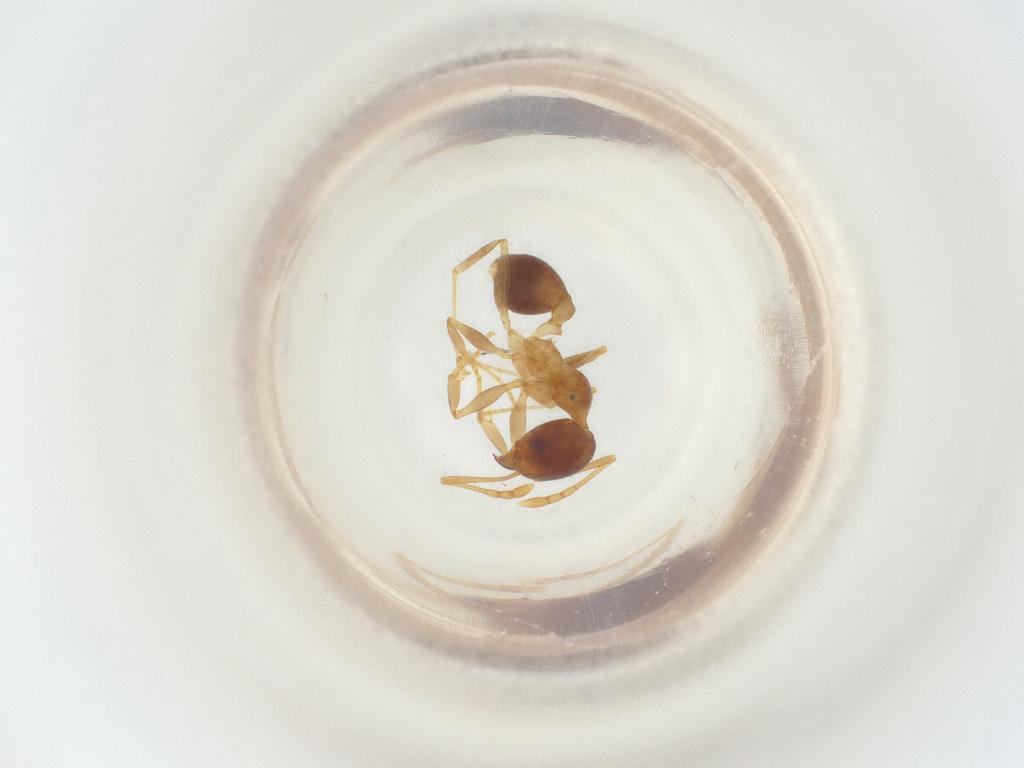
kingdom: Animalia
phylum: Arthropoda
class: Insecta
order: Hymenoptera
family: Formicidae
